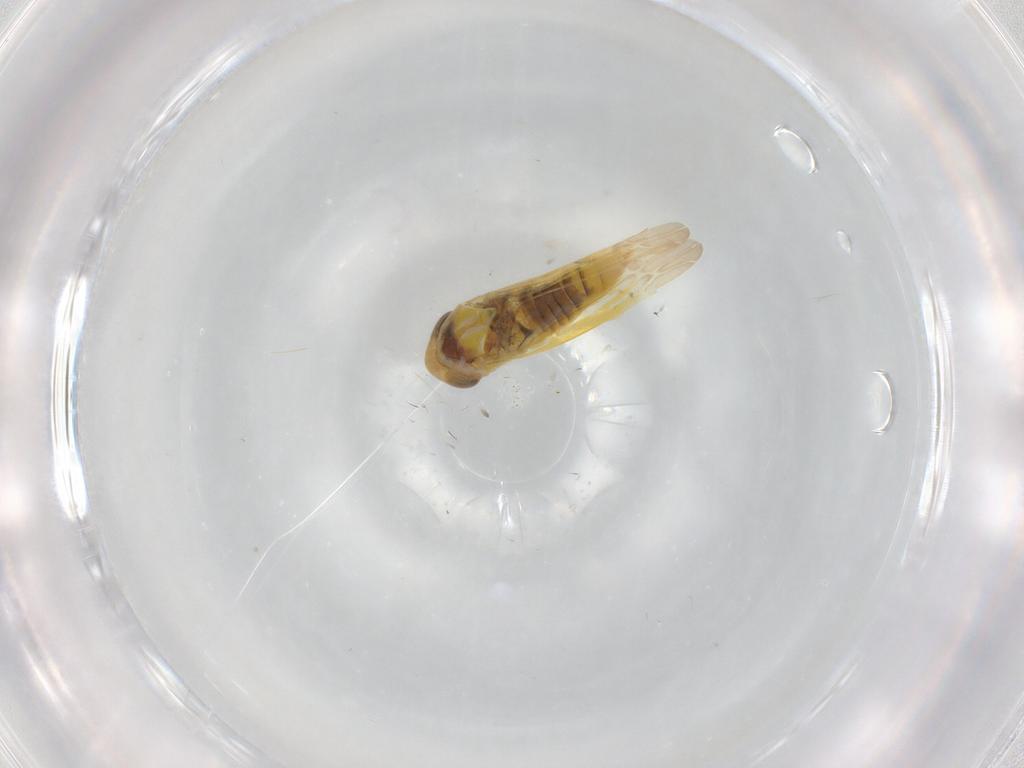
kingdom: Animalia
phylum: Arthropoda
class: Insecta
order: Hemiptera
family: Cicadellidae
